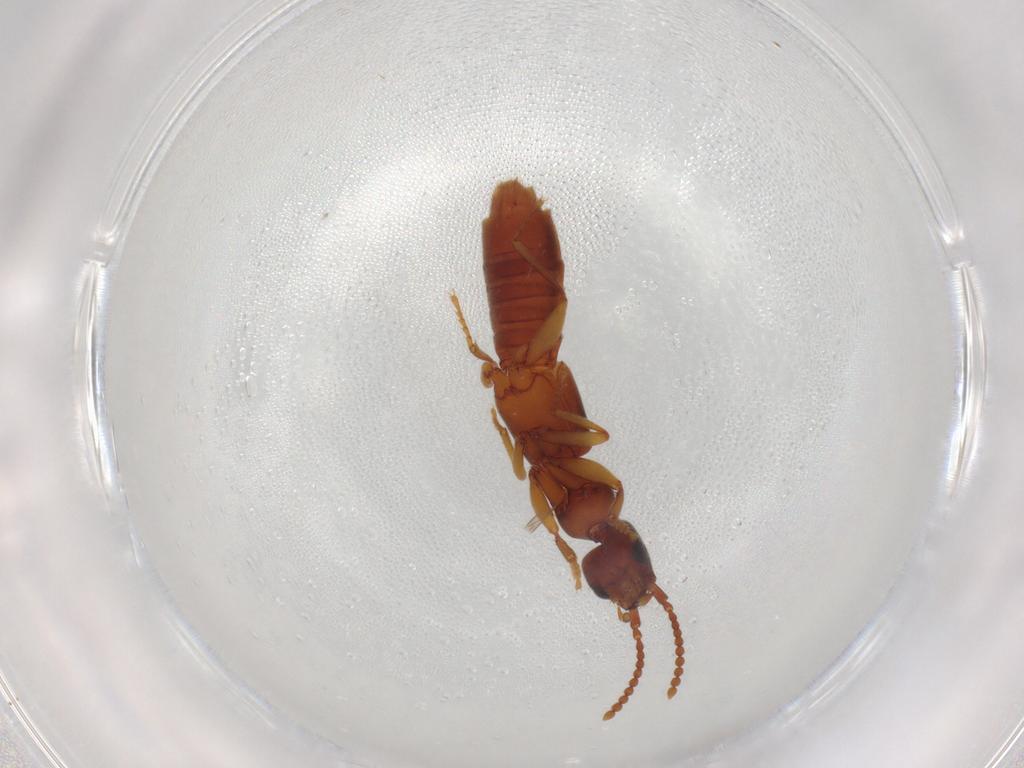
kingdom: Animalia
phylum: Arthropoda
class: Insecta
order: Coleoptera
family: Staphylinidae
